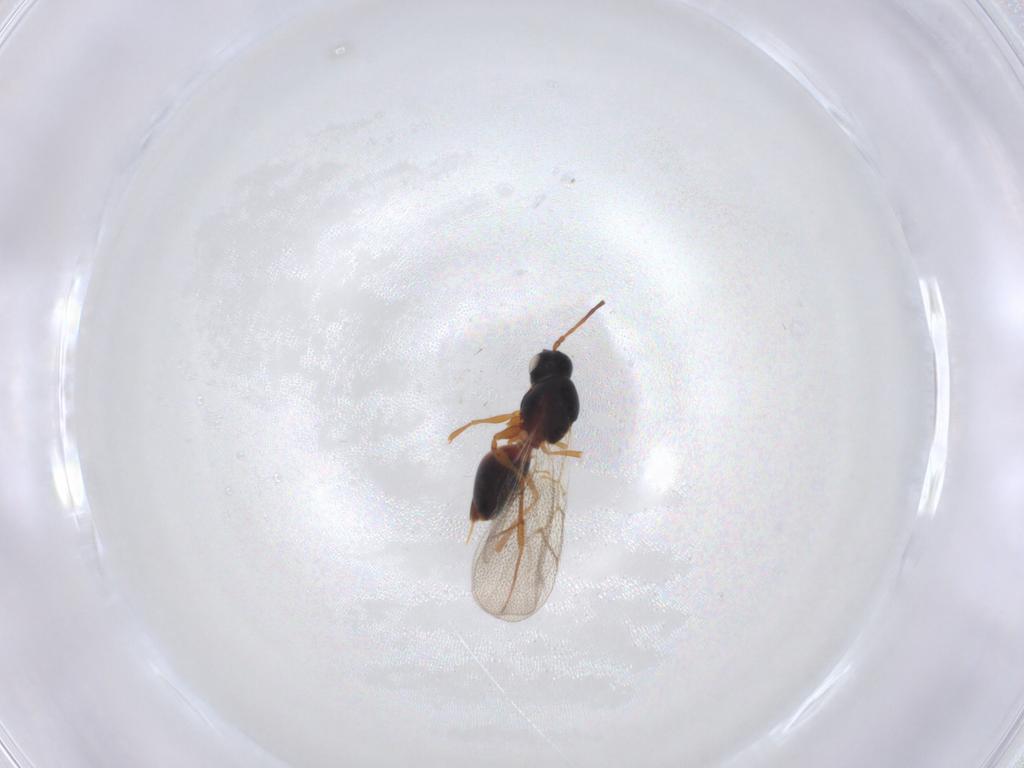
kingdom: Animalia
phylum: Arthropoda
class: Insecta
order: Hymenoptera
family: Figitidae
